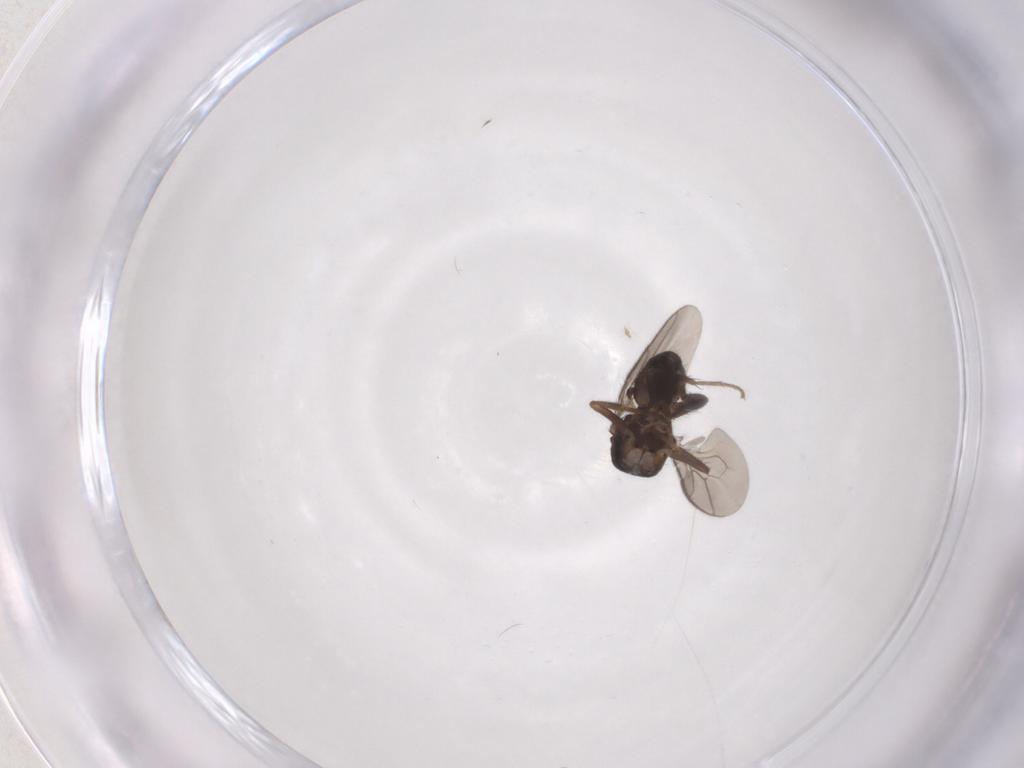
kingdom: Animalia
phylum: Arthropoda
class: Insecta
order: Diptera
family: Sphaeroceridae
